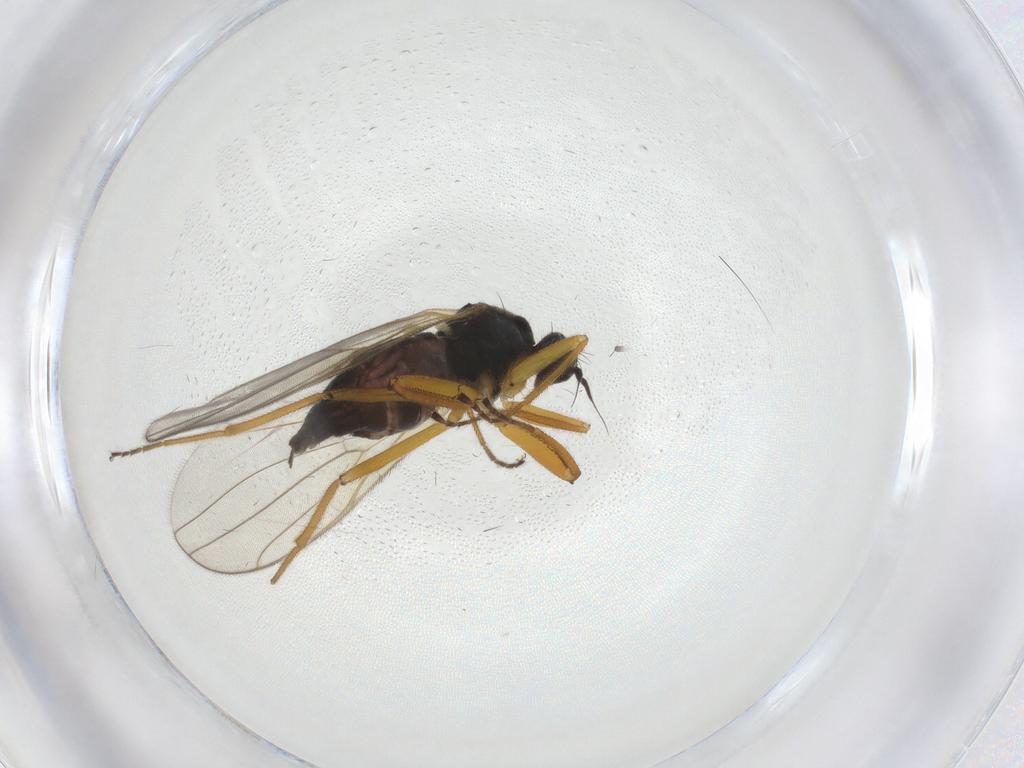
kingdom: Animalia
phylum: Arthropoda
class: Insecta
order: Diptera
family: Hybotidae
